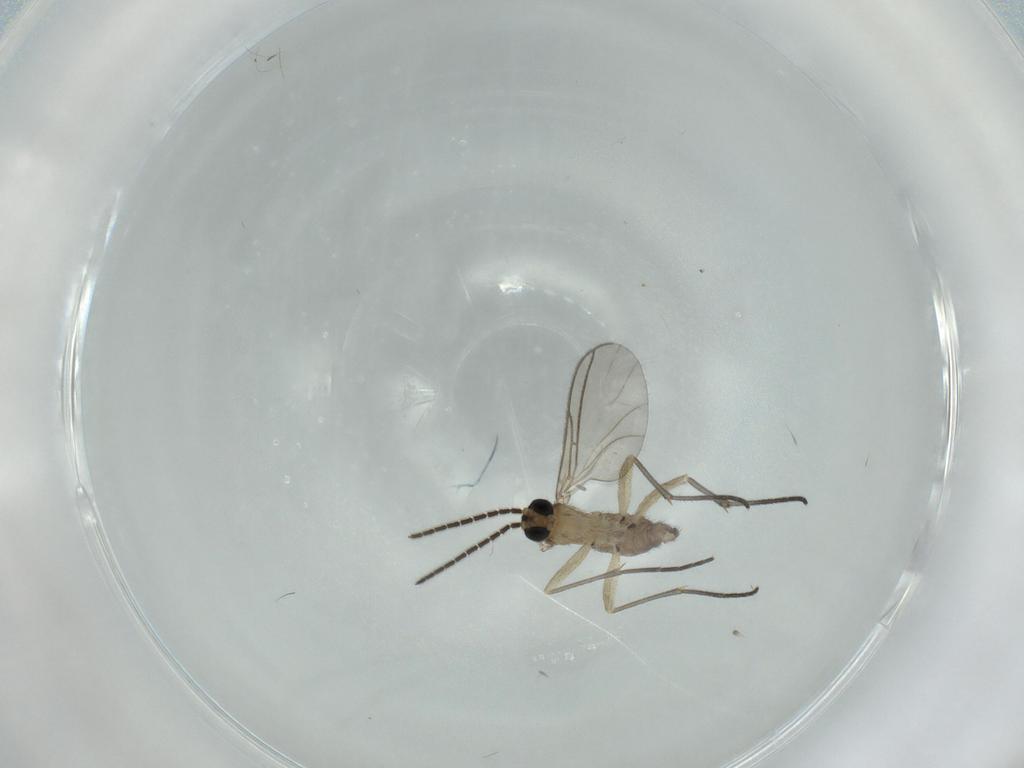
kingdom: Animalia
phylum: Arthropoda
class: Insecta
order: Diptera
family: Sciaridae
